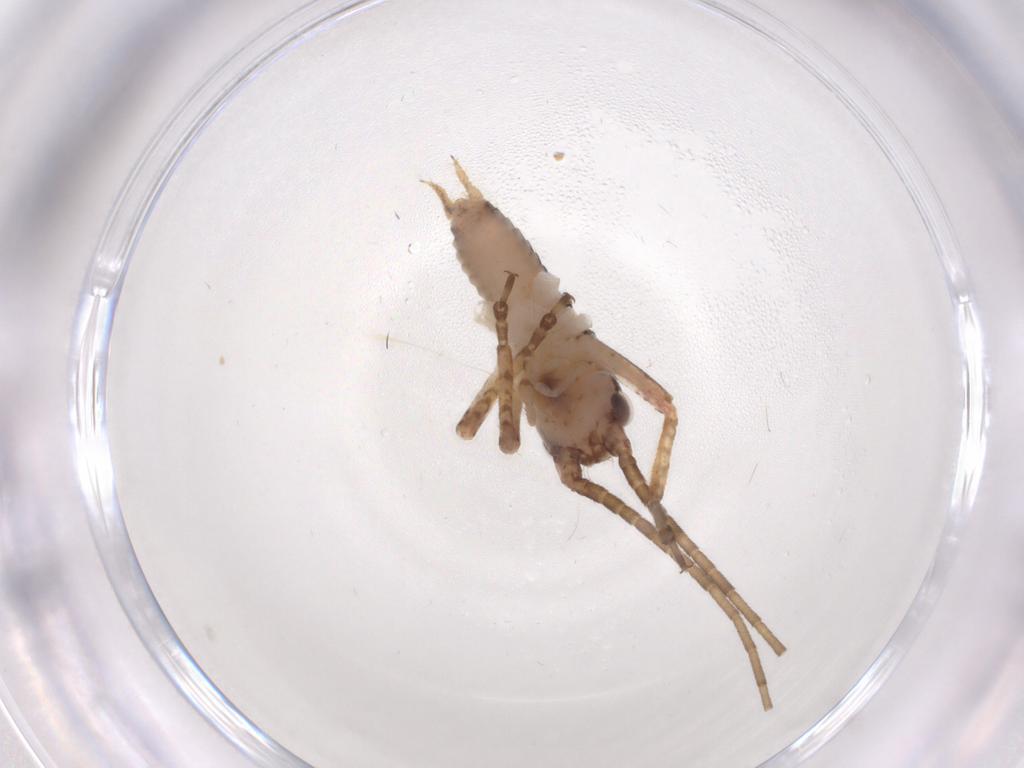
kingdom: Animalia
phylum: Arthropoda
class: Insecta
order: Orthoptera
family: Gryllidae
